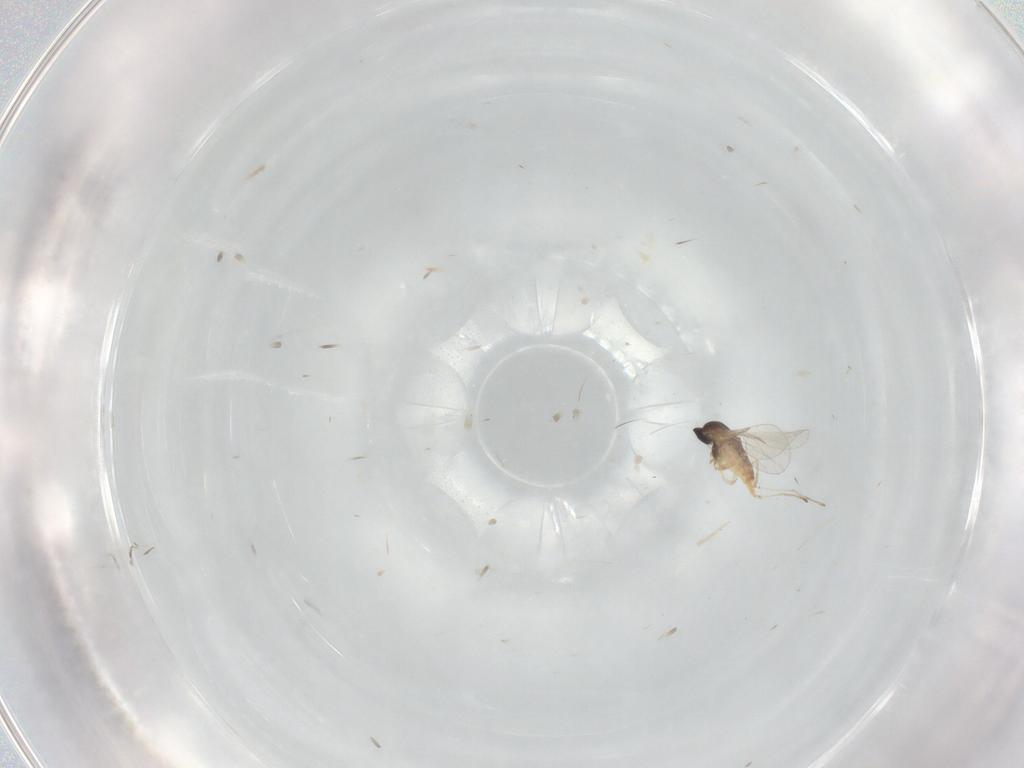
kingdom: Animalia
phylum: Arthropoda
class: Insecta
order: Diptera
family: Cecidomyiidae
